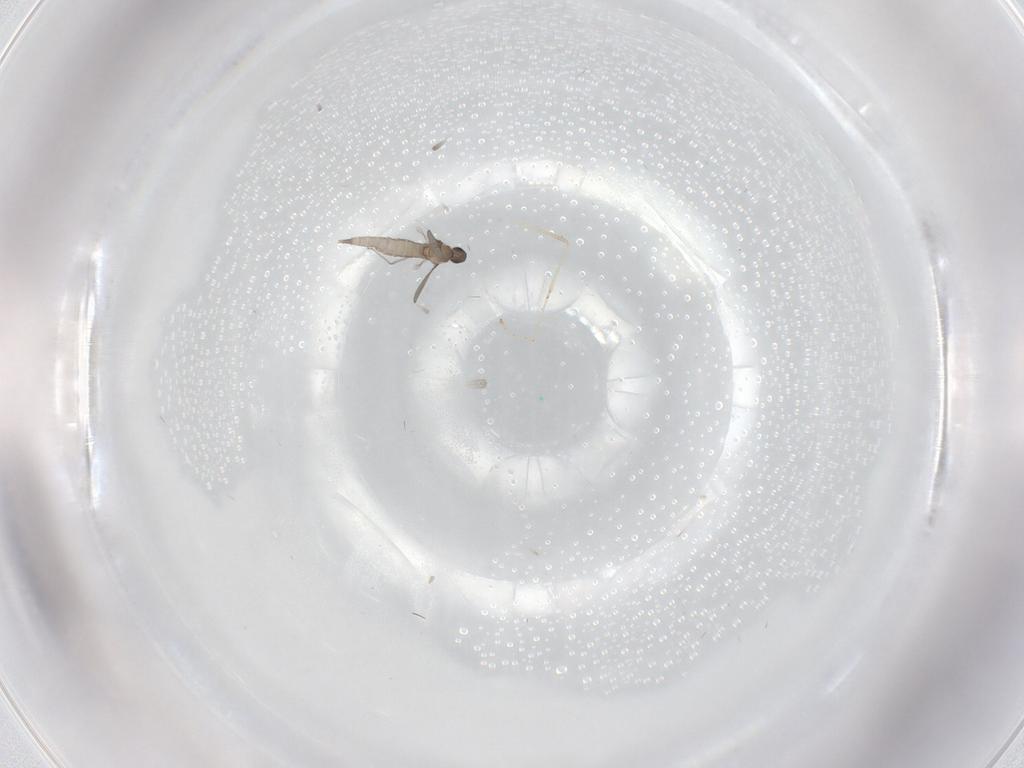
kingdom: Animalia
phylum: Arthropoda
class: Insecta
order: Diptera
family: Cecidomyiidae
